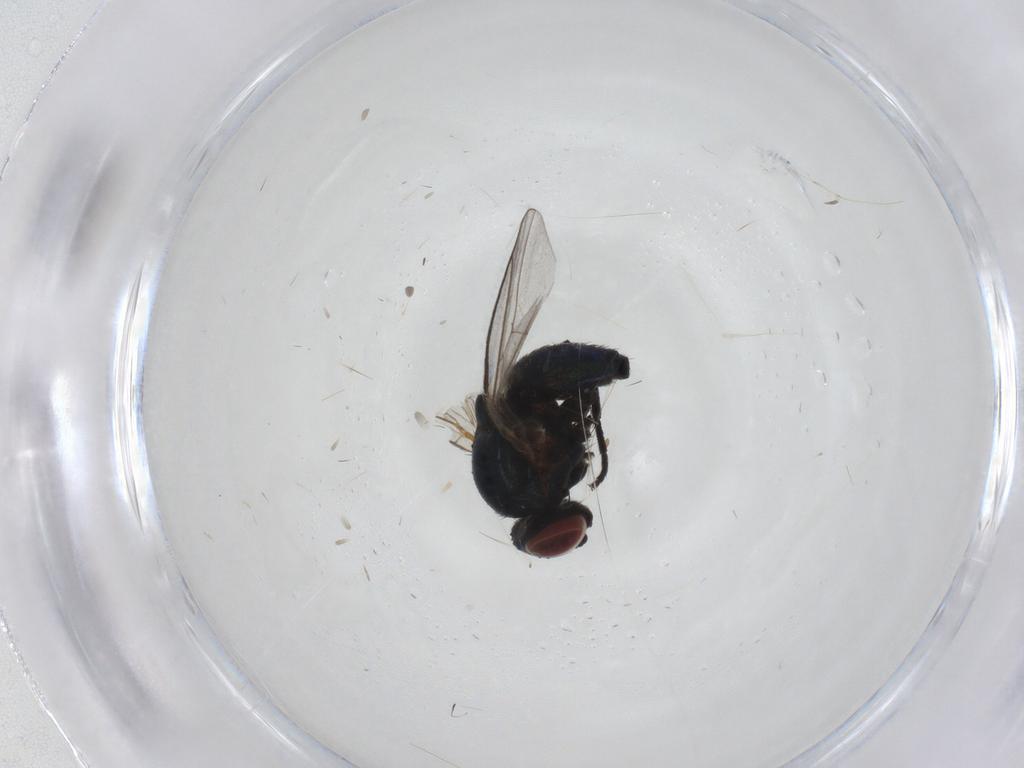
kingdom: Animalia
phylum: Arthropoda
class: Insecta
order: Diptera
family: Agromyzidae
